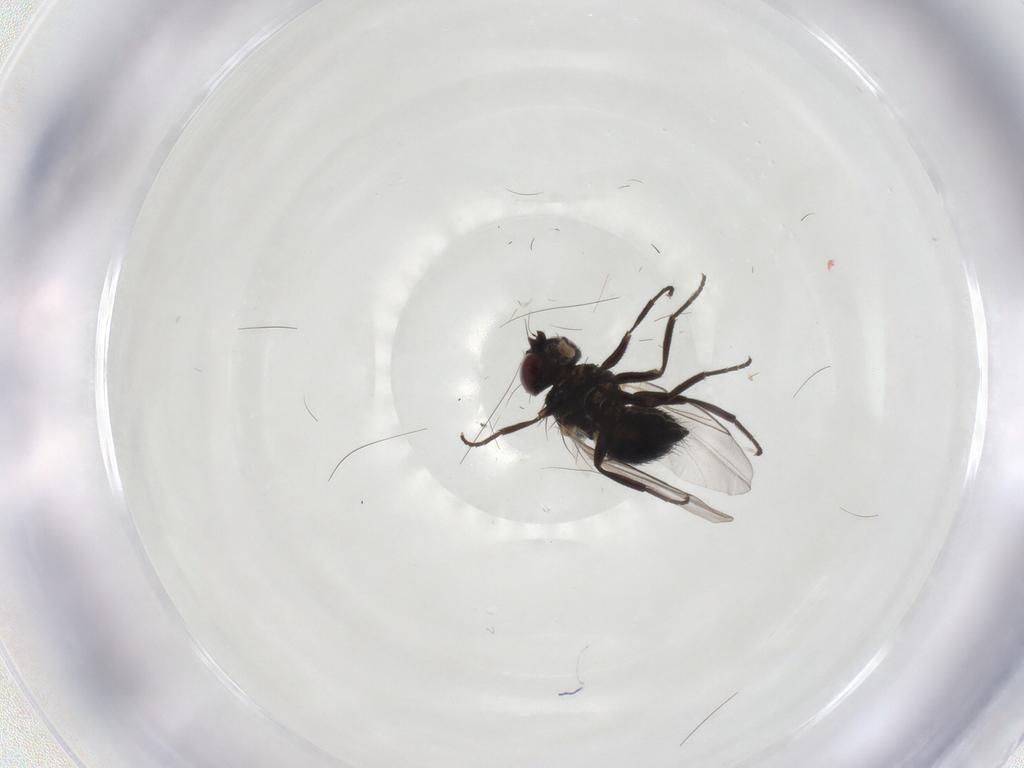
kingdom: Animalia
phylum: Arthropoda
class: Insecta
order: Diptera
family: Agromyzidae
